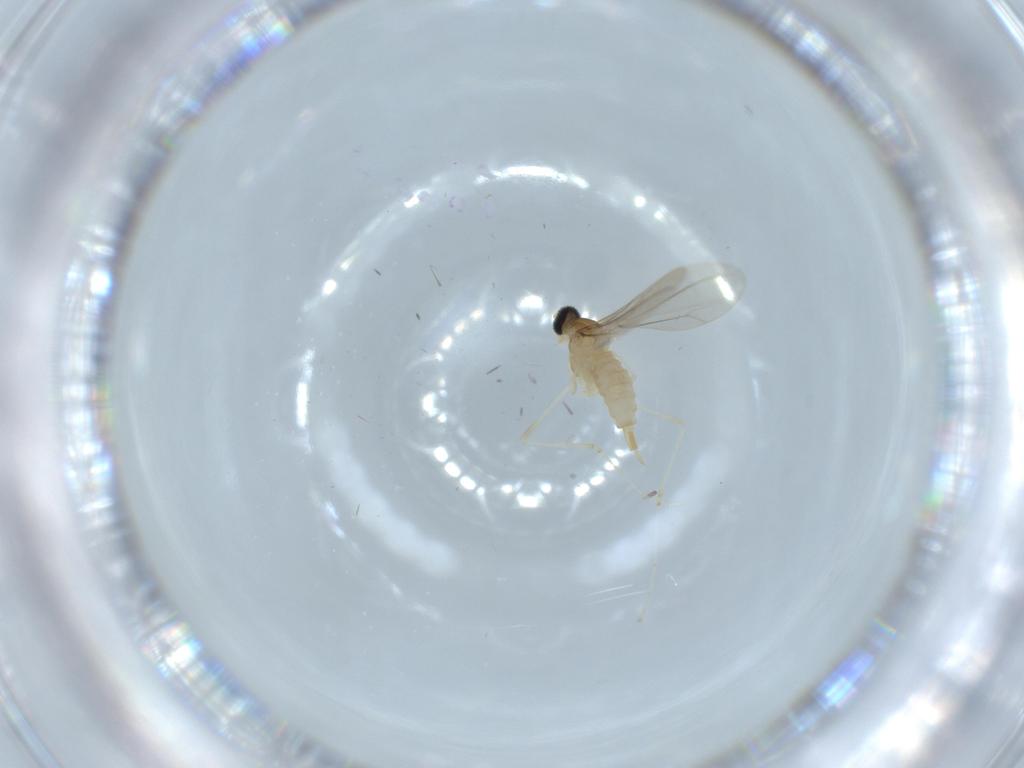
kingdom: Animalia
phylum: Arthropoda
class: Insecta
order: Diptera
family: Cecidomyiidae
